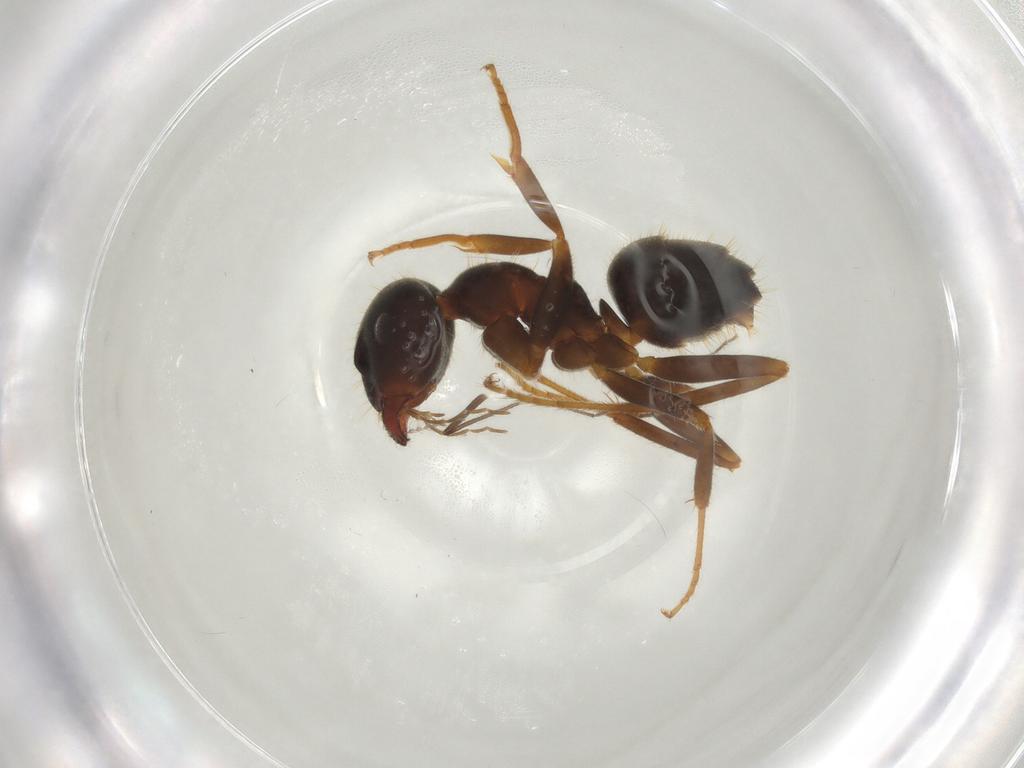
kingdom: Animalia
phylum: Arthropoda
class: Insecta
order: Hymenoptera
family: Formicidae
